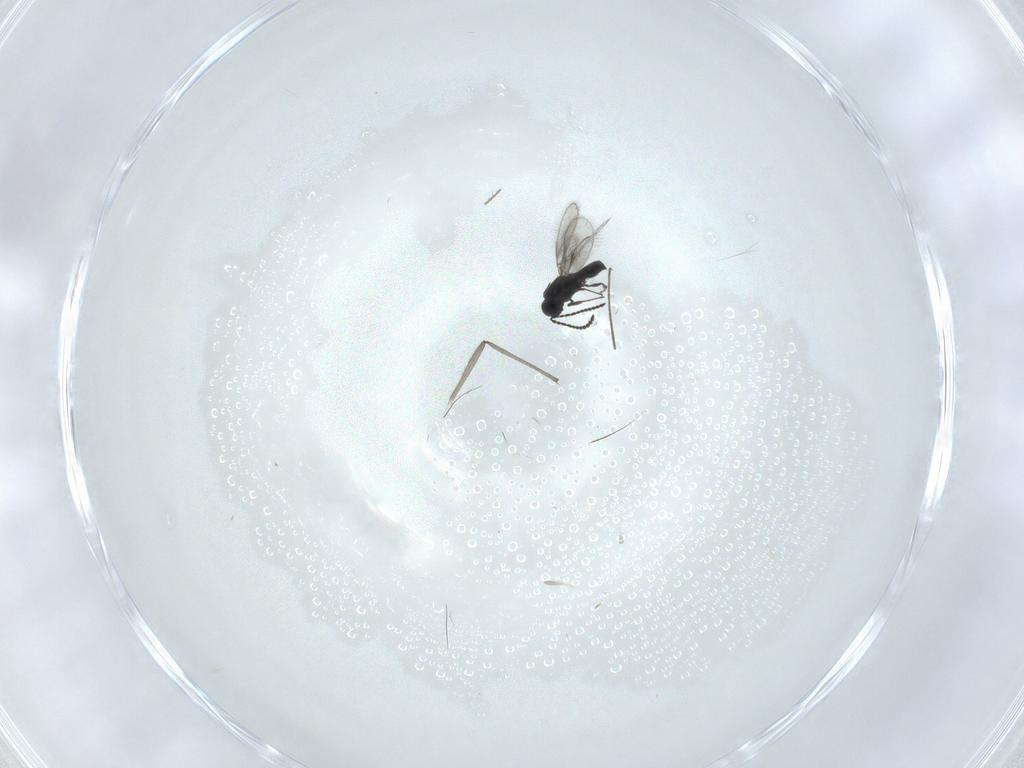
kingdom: Animalia
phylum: Arthropoda
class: Insecta
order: Hymenoptera
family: Scelionidae
